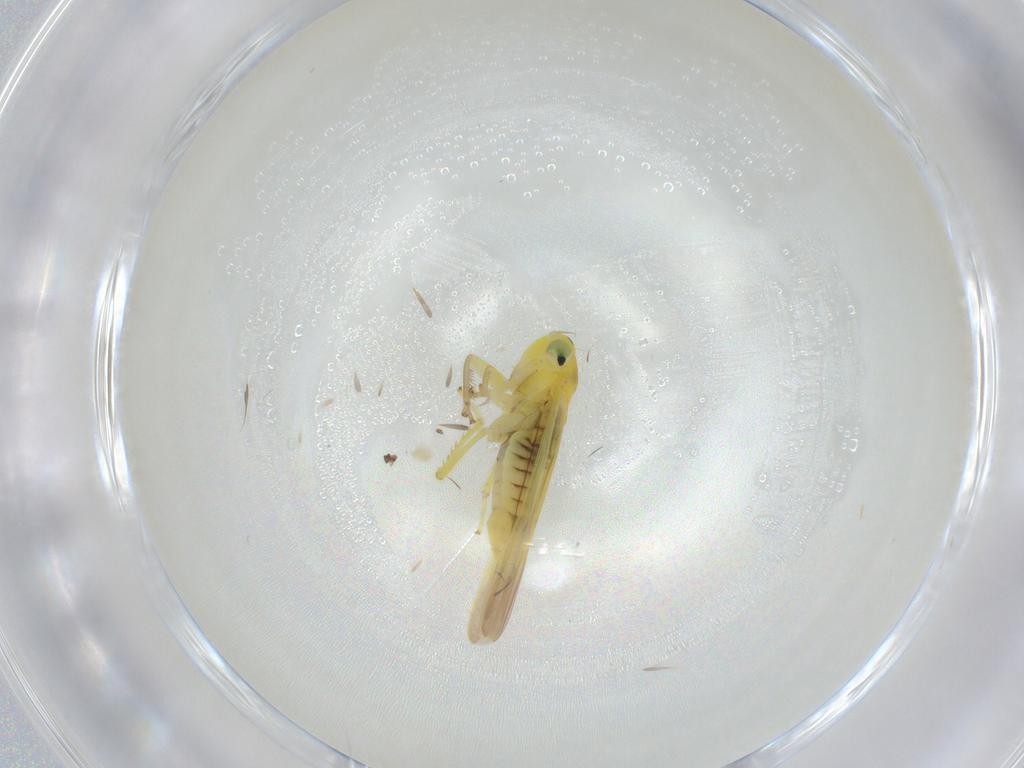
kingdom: Animalia
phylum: Arthropoda
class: Insecta
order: Hemiptera
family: Cicadellidae
